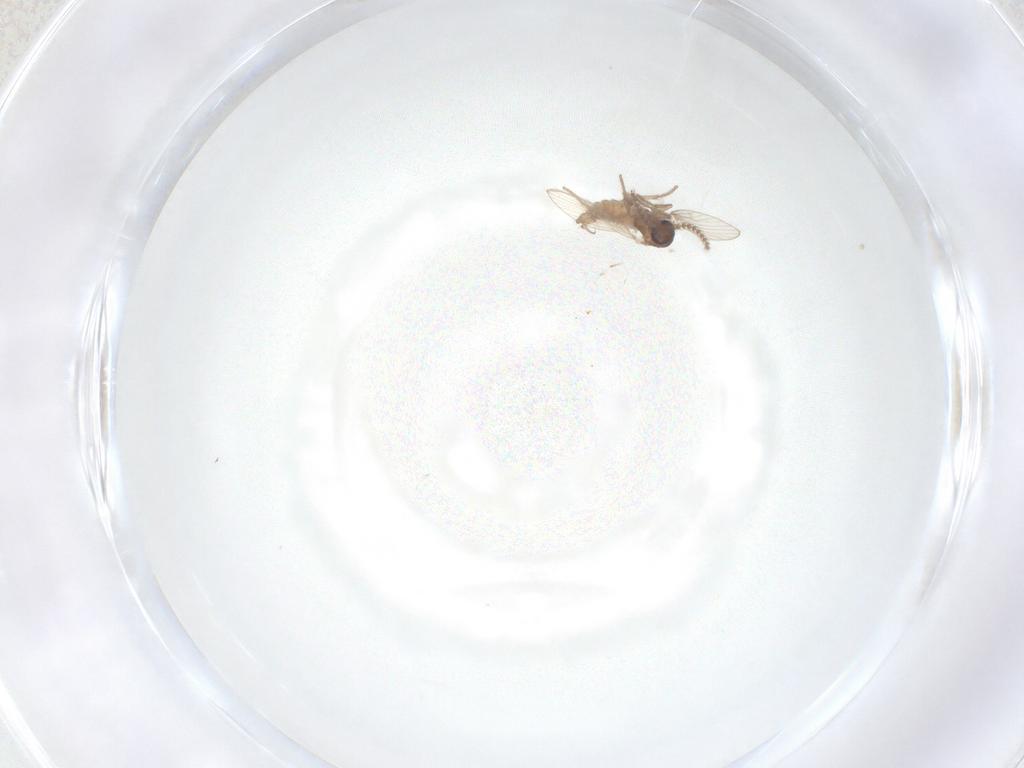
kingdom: Animalia
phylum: Arthropoda
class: Insecta
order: Diptera
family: Psychodidae
